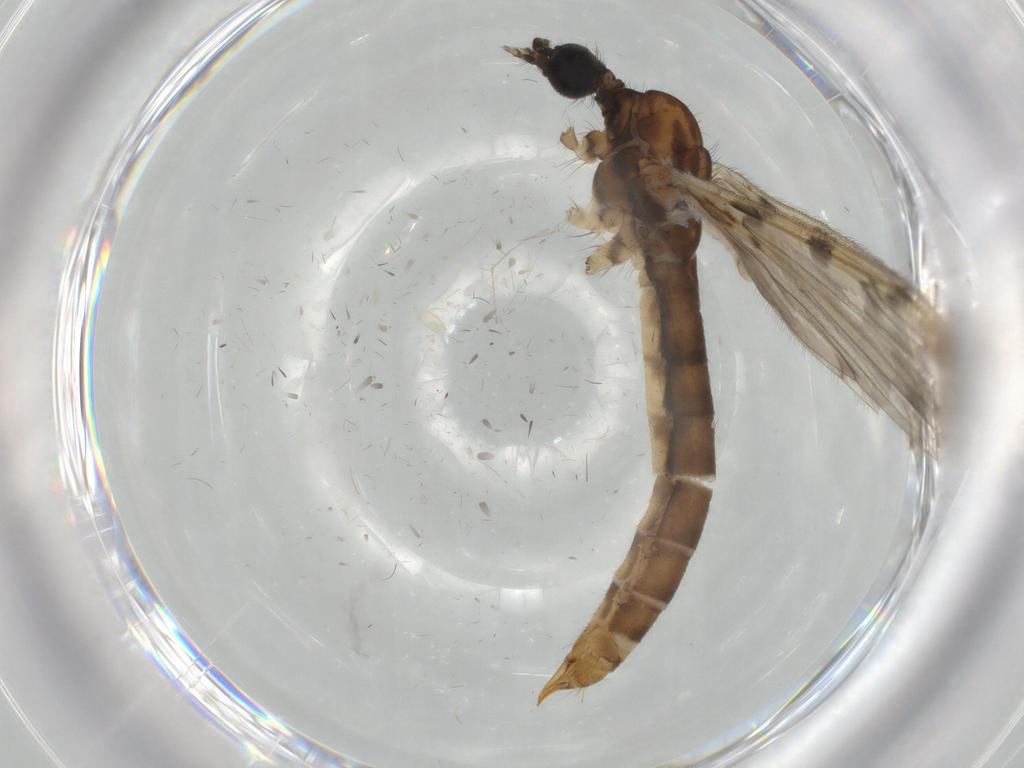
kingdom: Animalia
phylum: Arthropoda
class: Insecta
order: Diptera
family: Chironomidae
